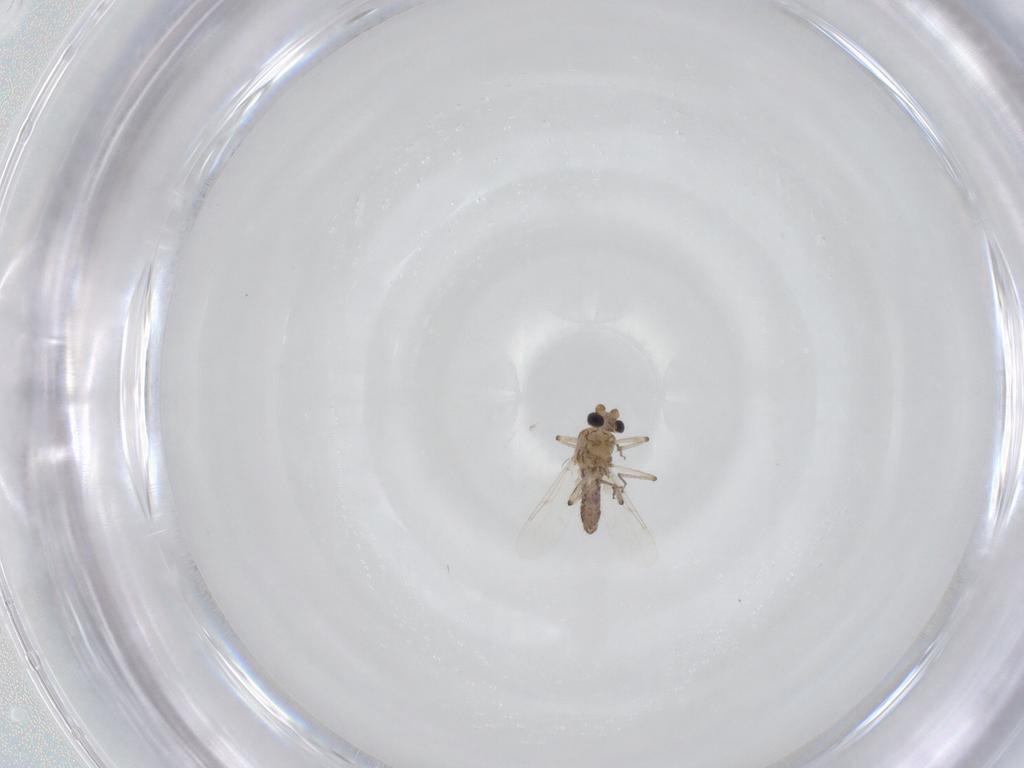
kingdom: Animalia
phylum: Arthropoda
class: Insecta
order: Diptera
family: Ceratopogonidae
